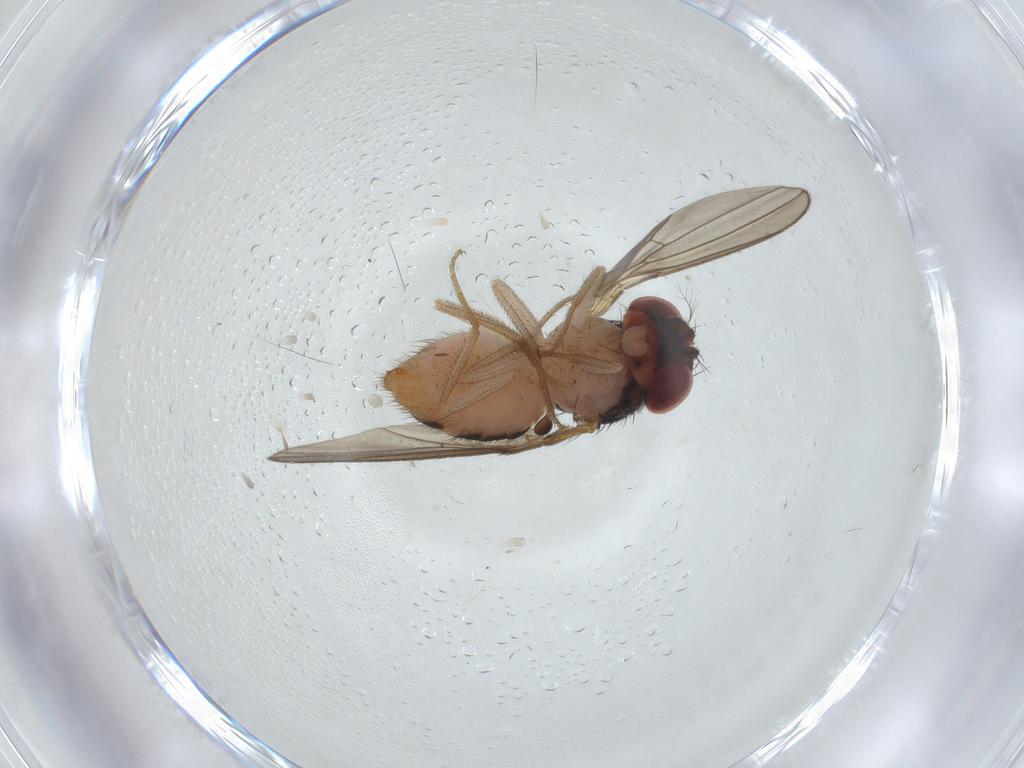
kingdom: Animalia
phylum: Arthropoda
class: Insecta
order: Diptera
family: Drosophilidae
